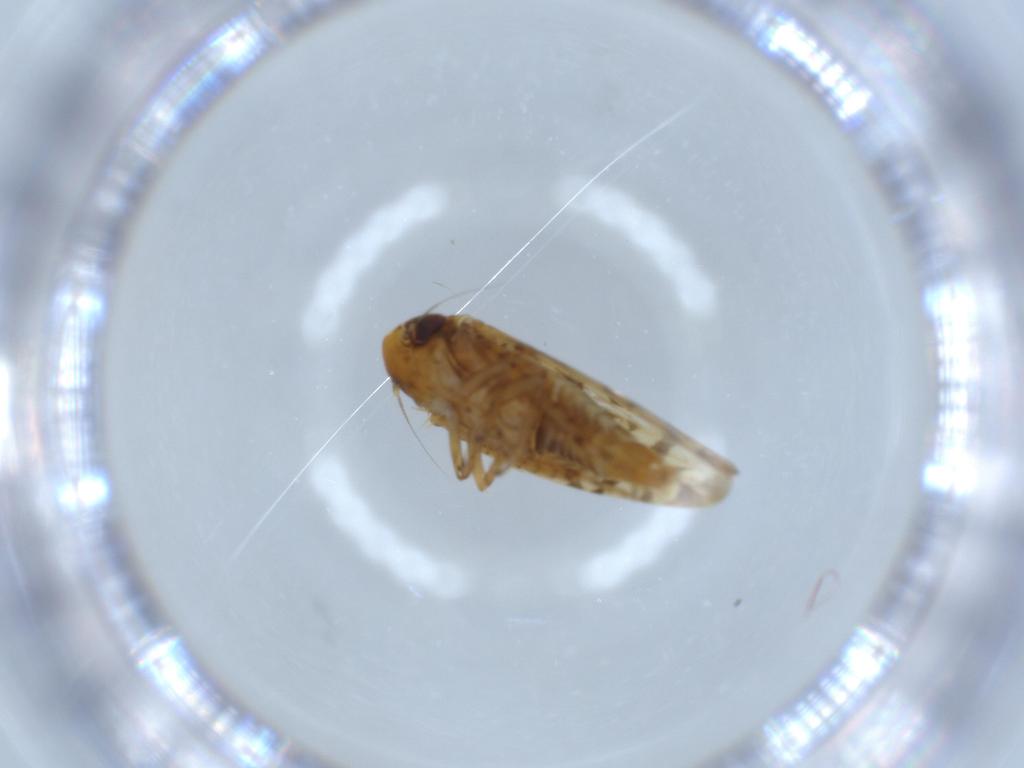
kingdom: Animalia
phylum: Arthropoda
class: Insecta
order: Hemiptera
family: Cicadellidae
